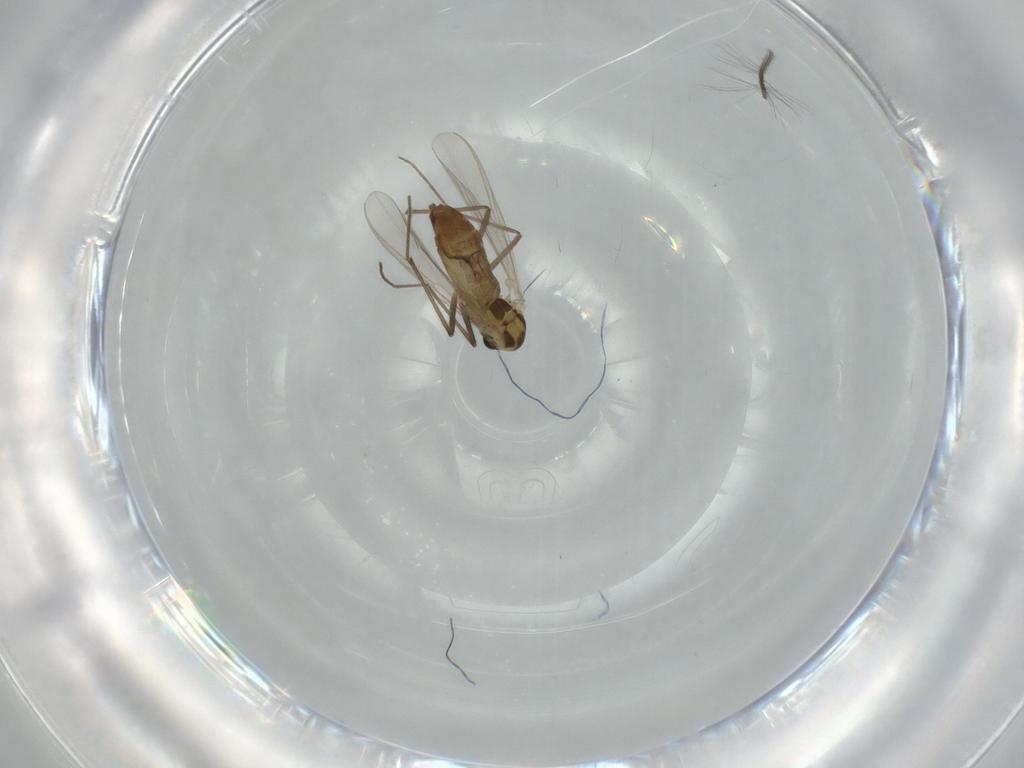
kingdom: Animalia
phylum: Arthropoda
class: Insecta
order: Diptera
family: Chironomidae
